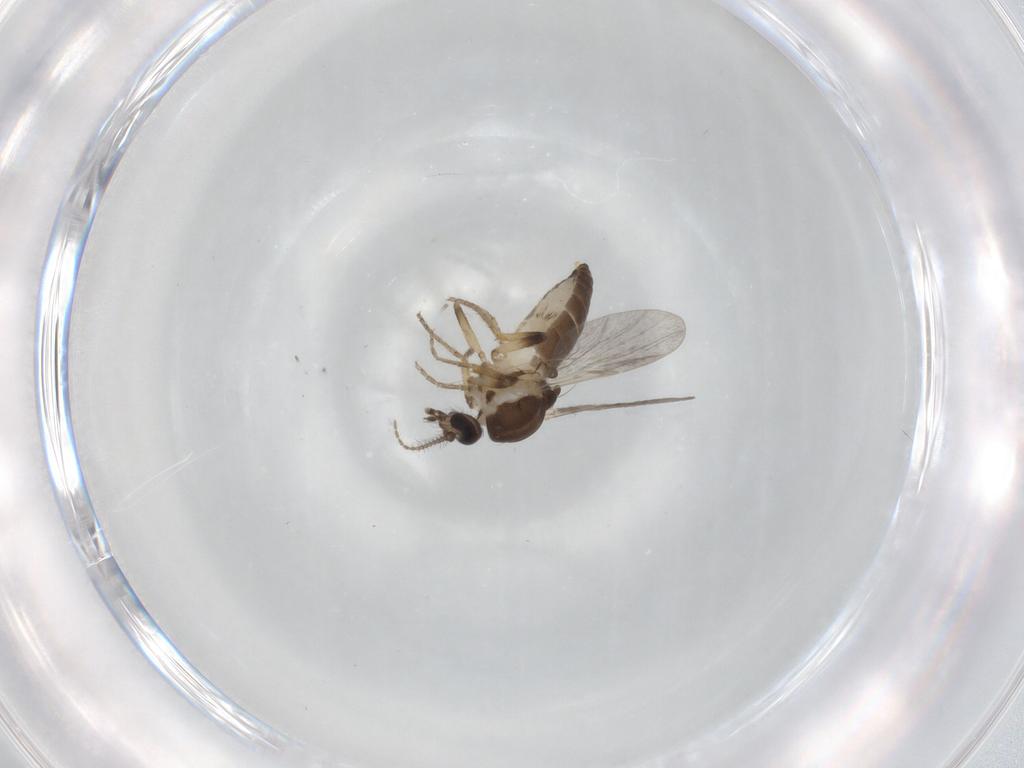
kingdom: Animalia
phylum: Arthropoda
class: Insecta
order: Diptera
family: Ceratopogonidae
